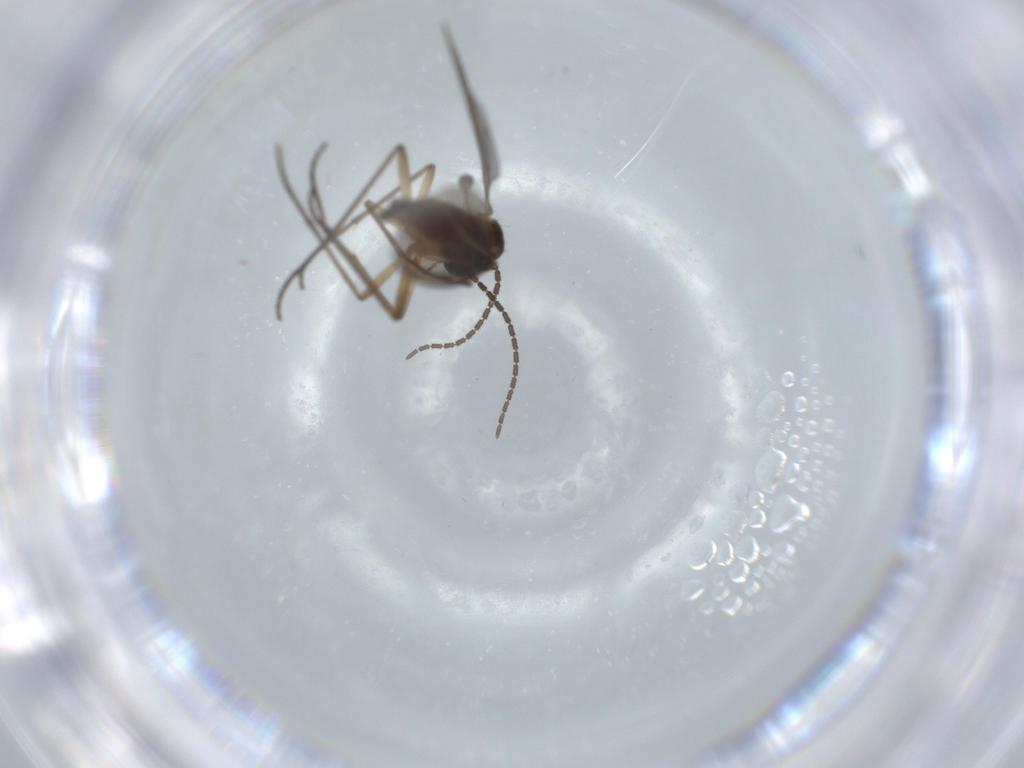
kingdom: Animalia
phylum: Arthropoda
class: Insecta
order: Diptera
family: Sciaridae
